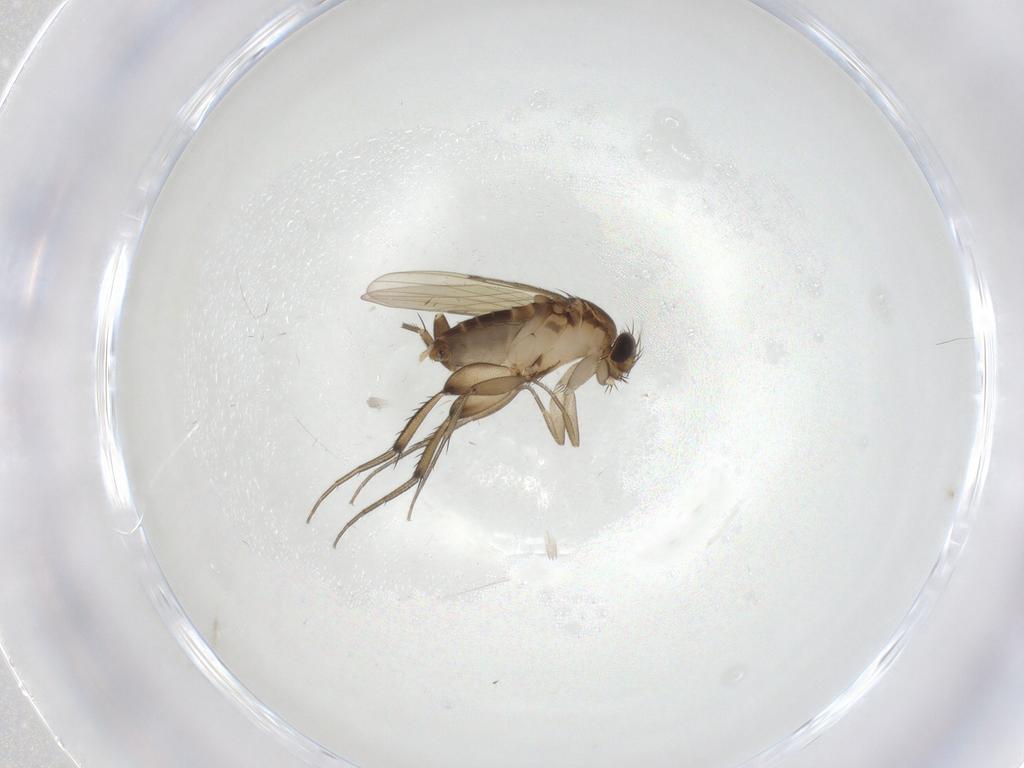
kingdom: Animalia
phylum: Arthropoda
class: Insecta
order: Diptera
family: Phoridae
